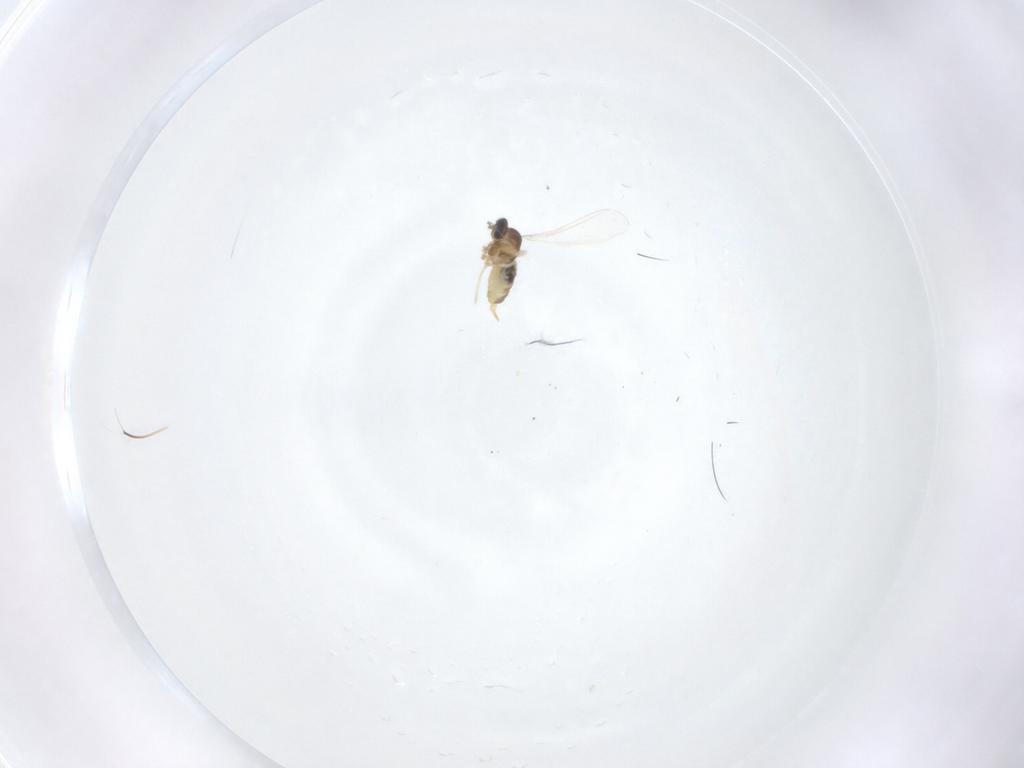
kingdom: Animalia
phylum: Arthropoda
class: Insecta
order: Diptera
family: Cecidomyiidae
